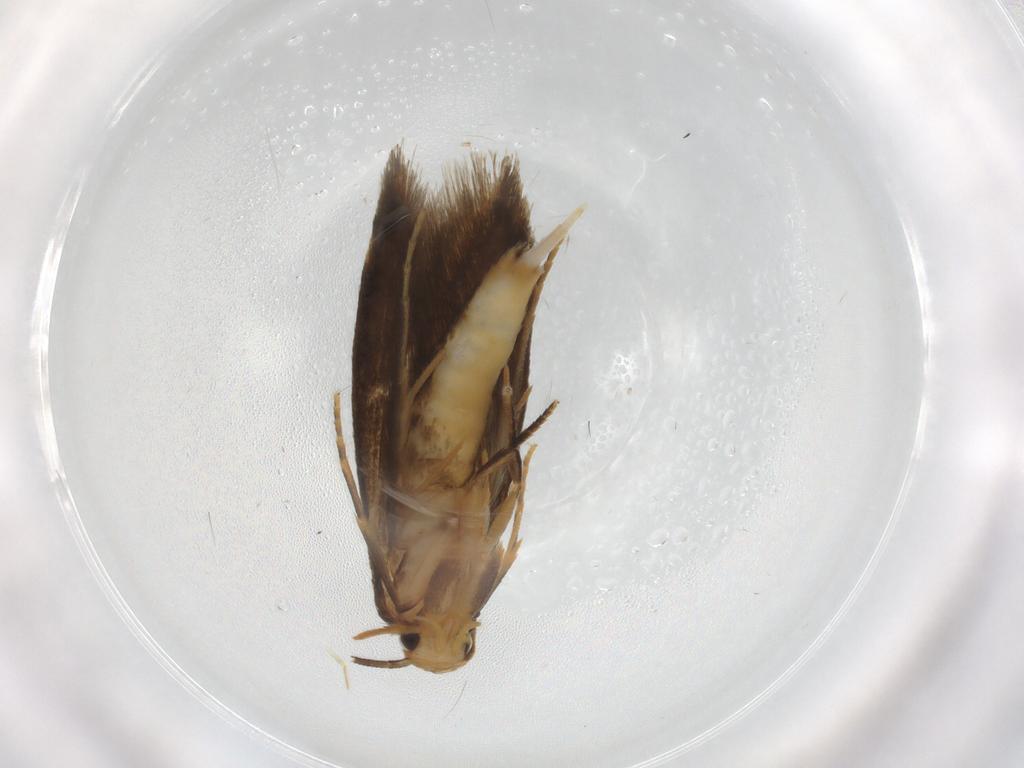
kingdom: Animalia
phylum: Arthropoda
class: Insecta
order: Lepidoptera
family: Tineidae
